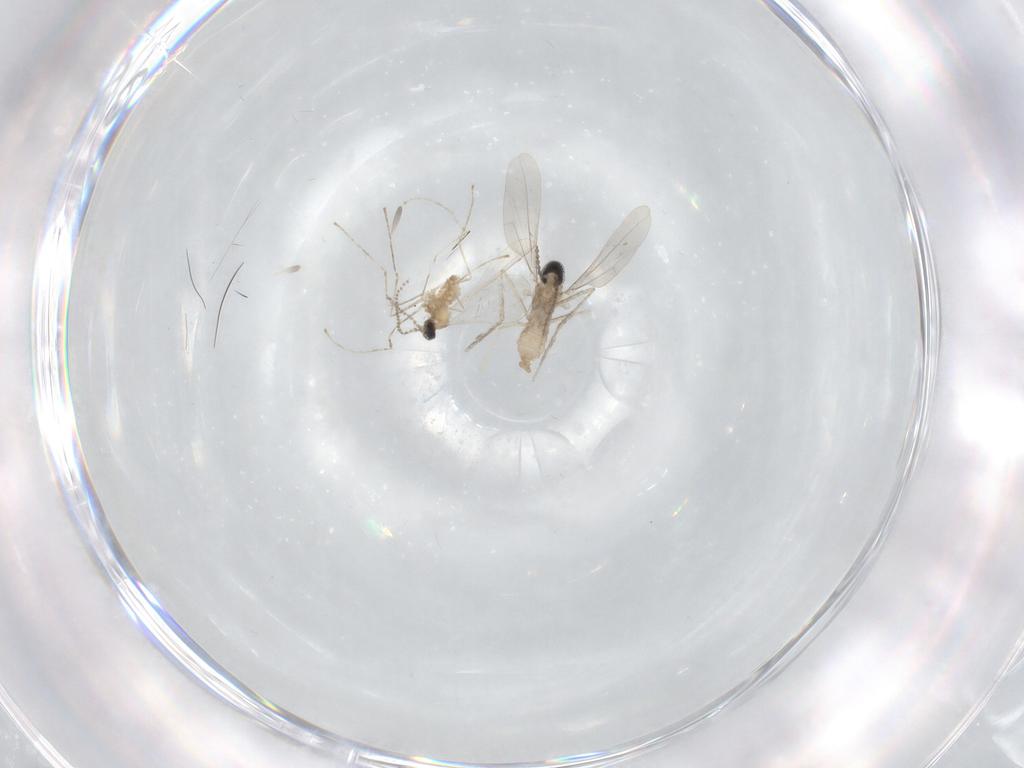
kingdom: Animalia
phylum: Arthropoda
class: Insecta
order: Diptera
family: Cecidomyiidae
